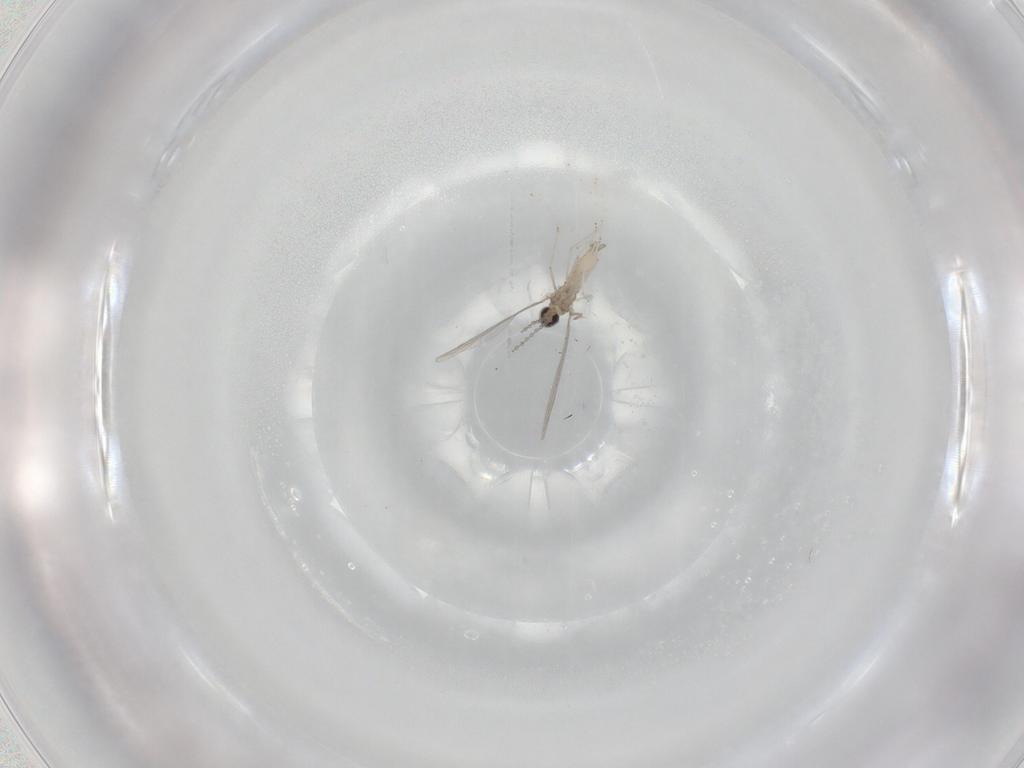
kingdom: Animalia
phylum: Arthropoda
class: Insecta
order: Diptera
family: Cecidomyiidae
